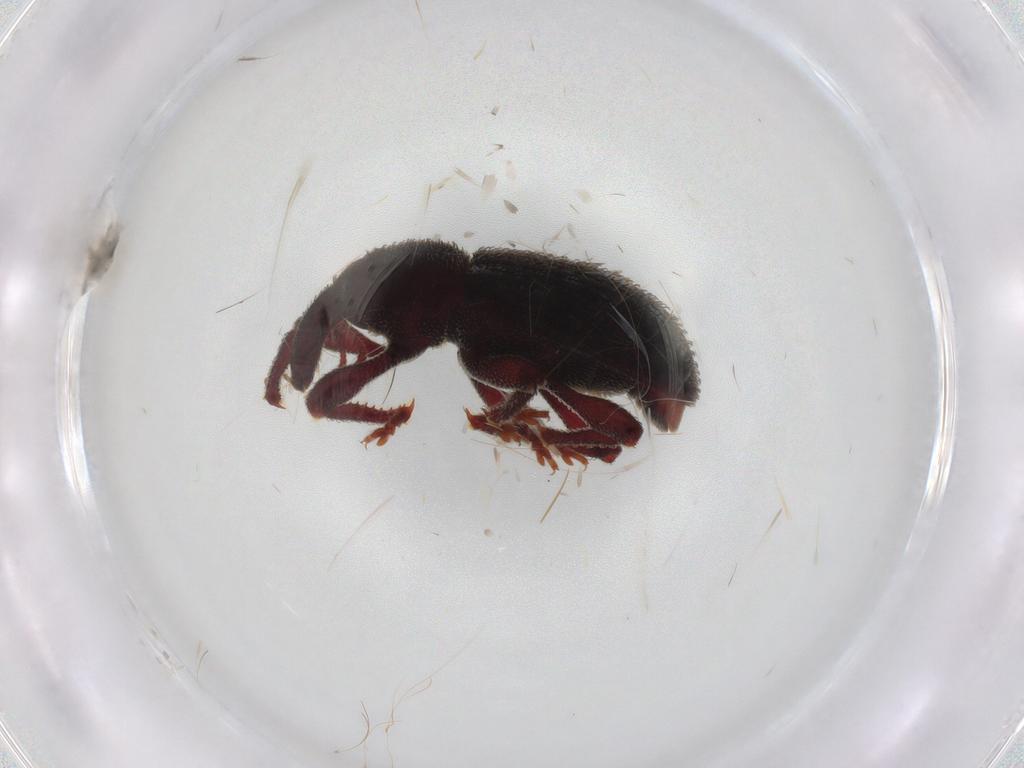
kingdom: Animalia
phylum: Arthropoda
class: Insecta
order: Coleoptera
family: Curculionidae
